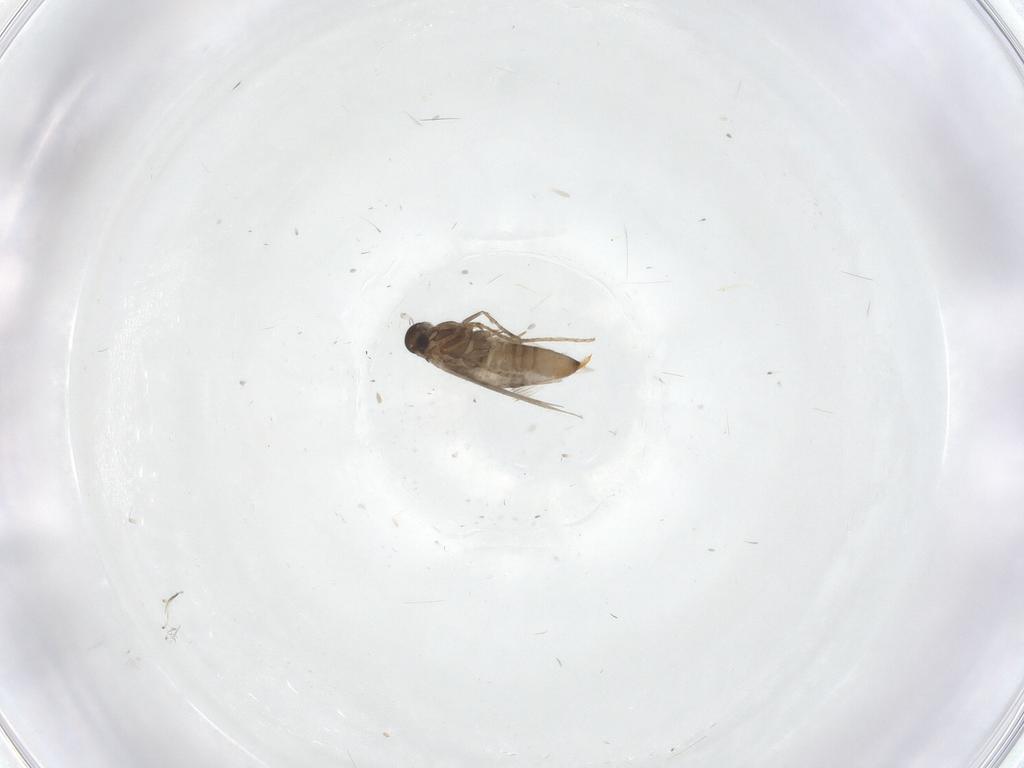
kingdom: Animalia
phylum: Arthropoda
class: Insecta
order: Lepidoptera
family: Heliozelidae
